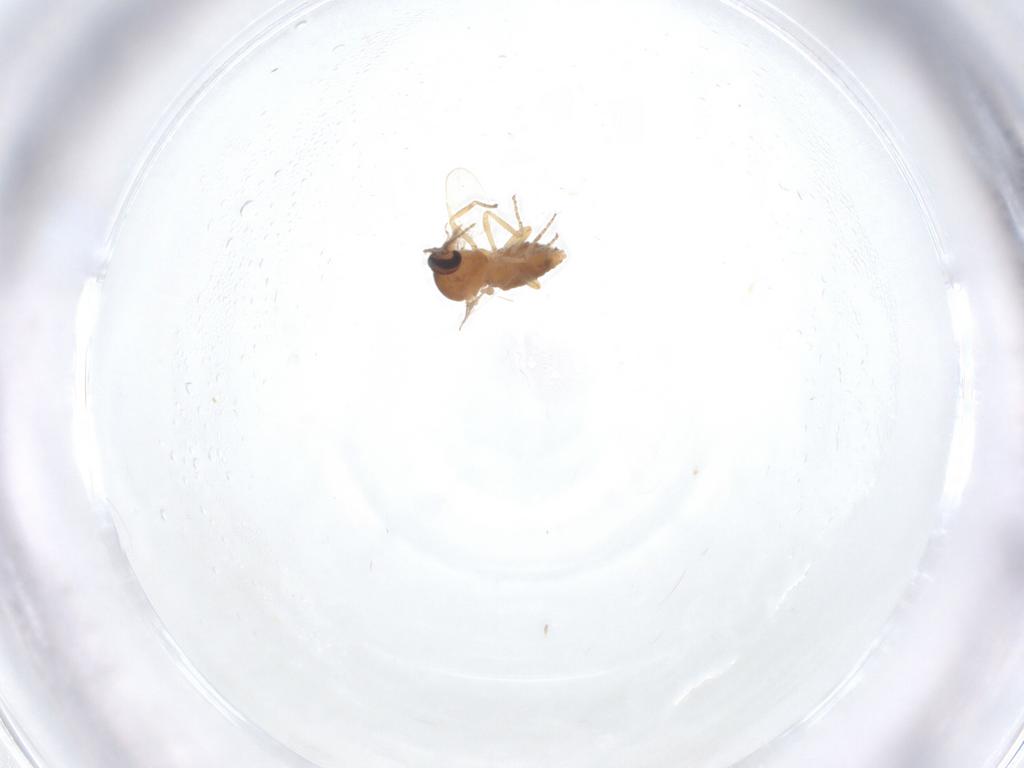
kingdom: Animalia
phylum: Arthropoda
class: Insecta
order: Diptera
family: Ceratopogonidae
